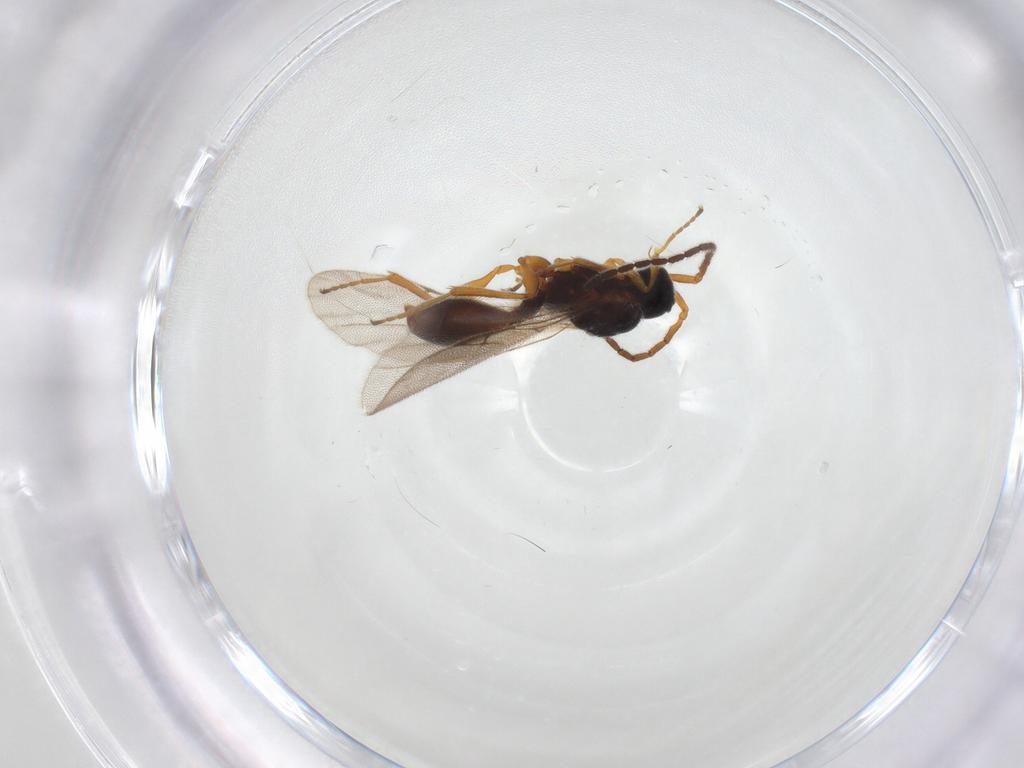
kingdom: Animalia
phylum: Arthropoda
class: Insecta
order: Hymenoptera
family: Diapriidae
